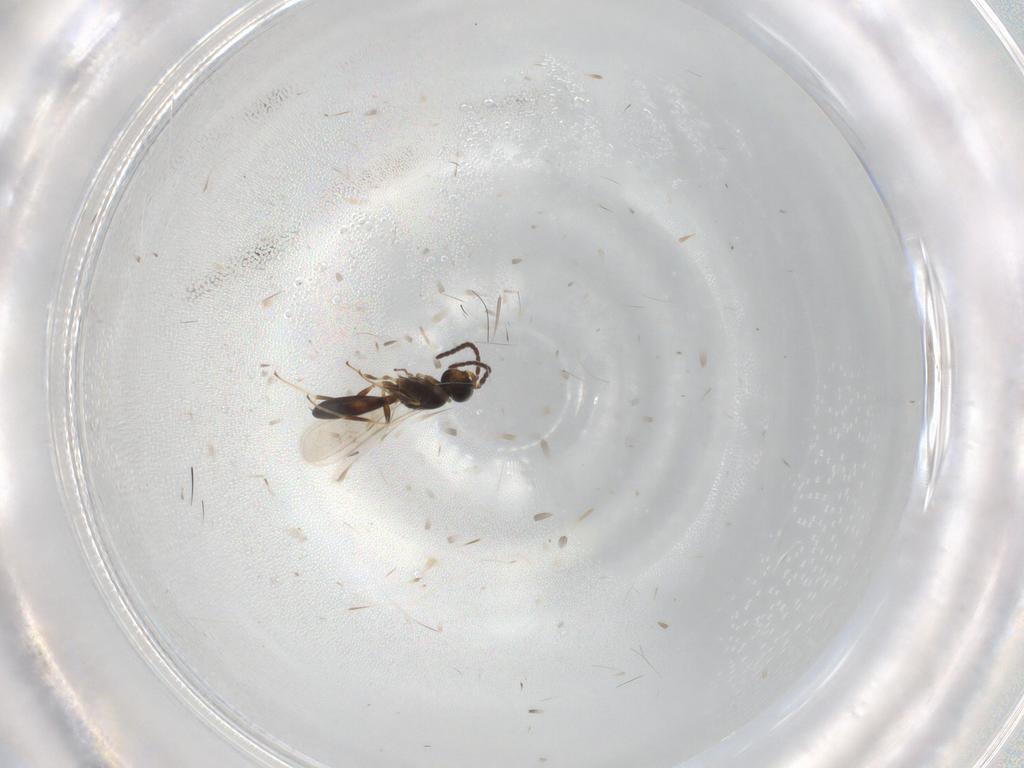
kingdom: Animalia
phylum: Arthropoda
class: Insecta
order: Hymenoptera
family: Scelionidae
